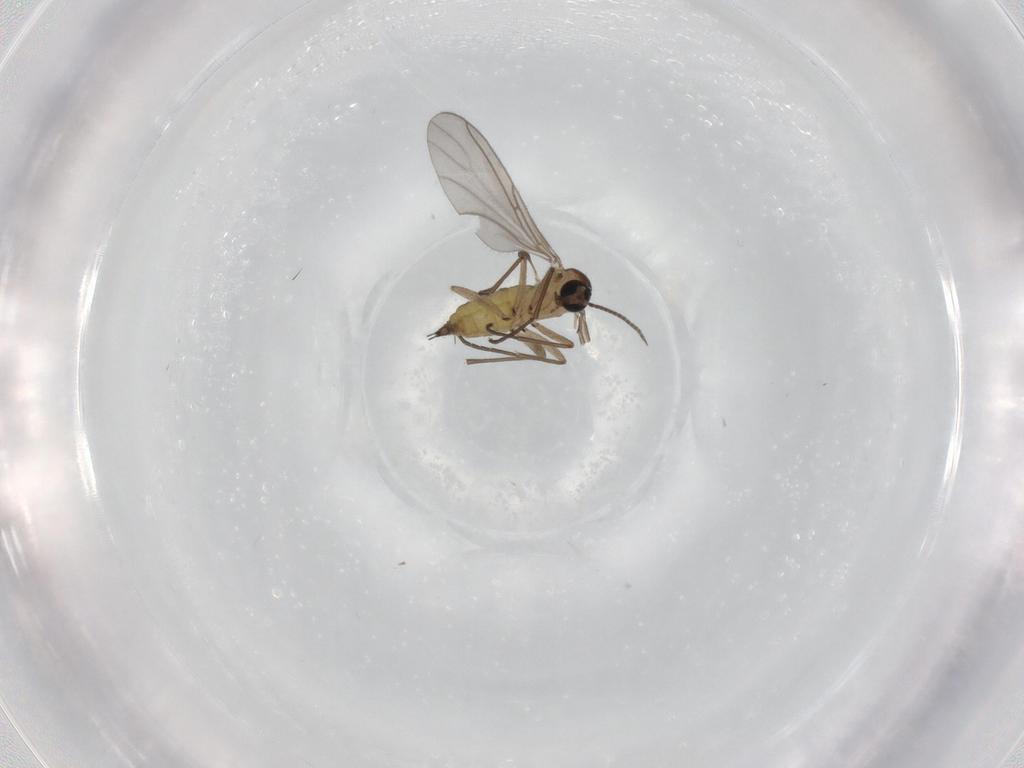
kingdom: Animalia
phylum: Arthropoda
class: Insecta
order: Diptera
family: Sciaridae
